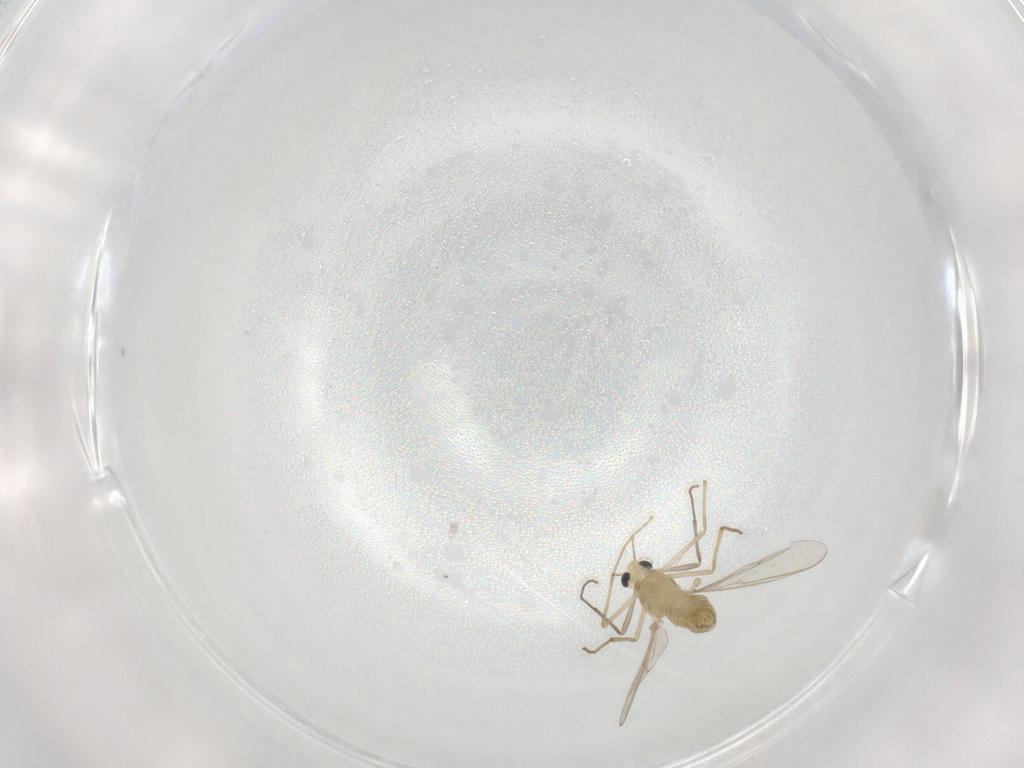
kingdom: Animalia
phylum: Arthropoda
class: Insecta
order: Diptera
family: Chironomidae
